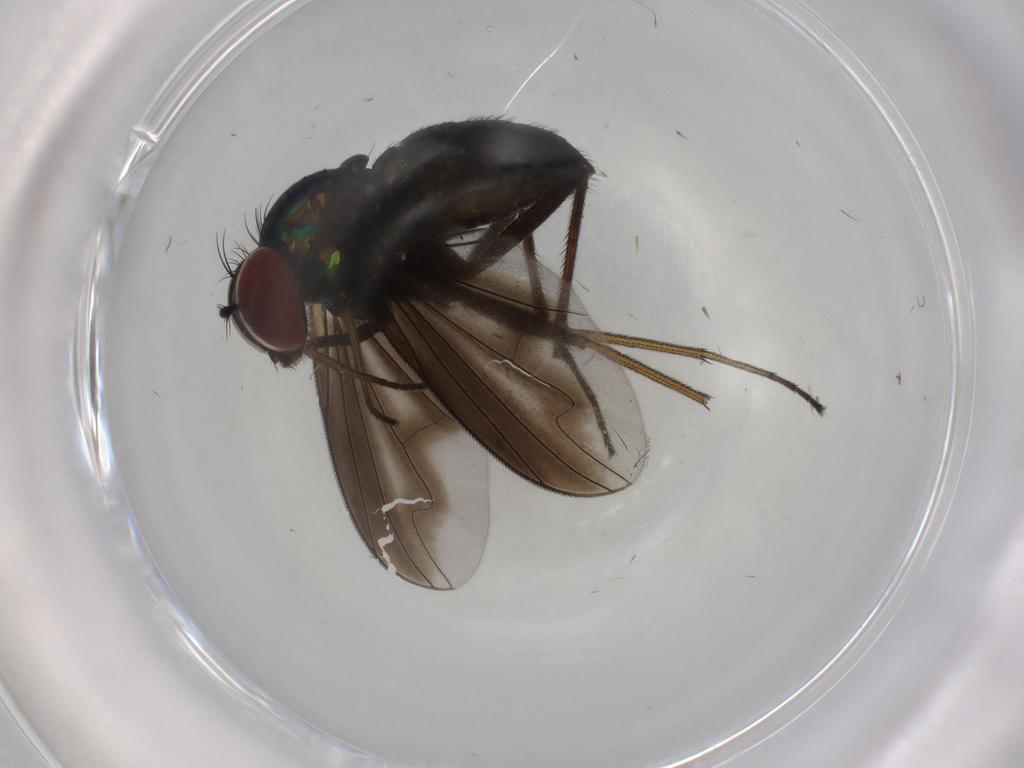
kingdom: Animalia
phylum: Arthropoda
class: Insecta
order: Diptera
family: Dolichopodidae
